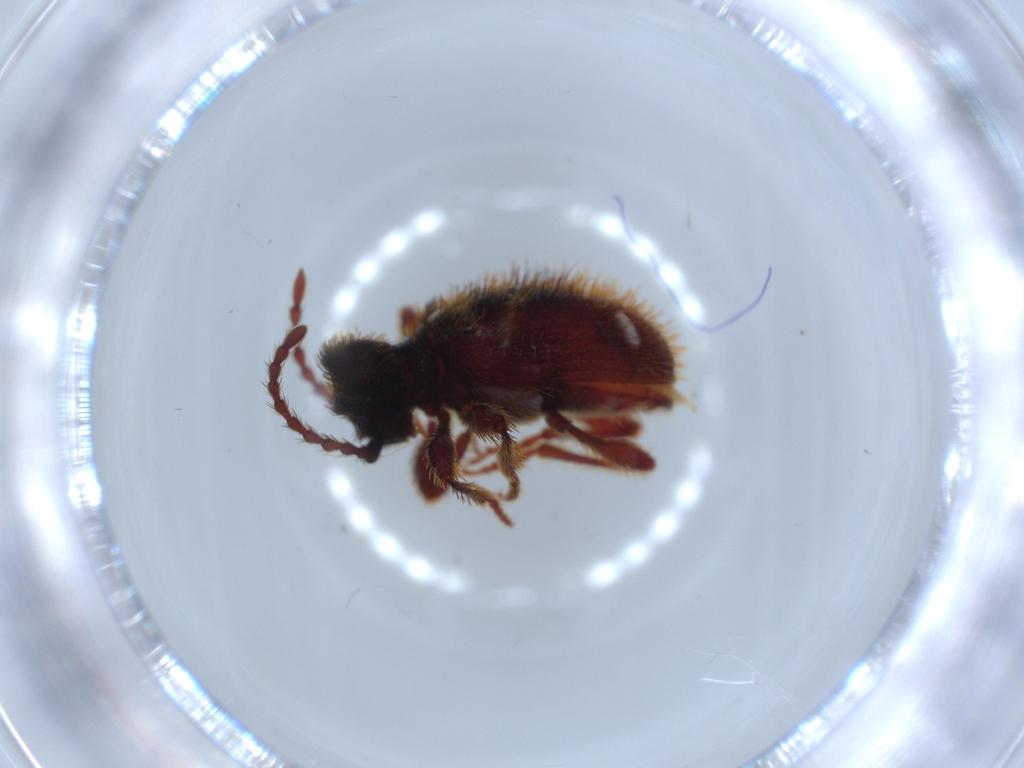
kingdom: Animalia
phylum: Arthropoda
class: Insecta
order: Coleoptera
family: Ptinidae
